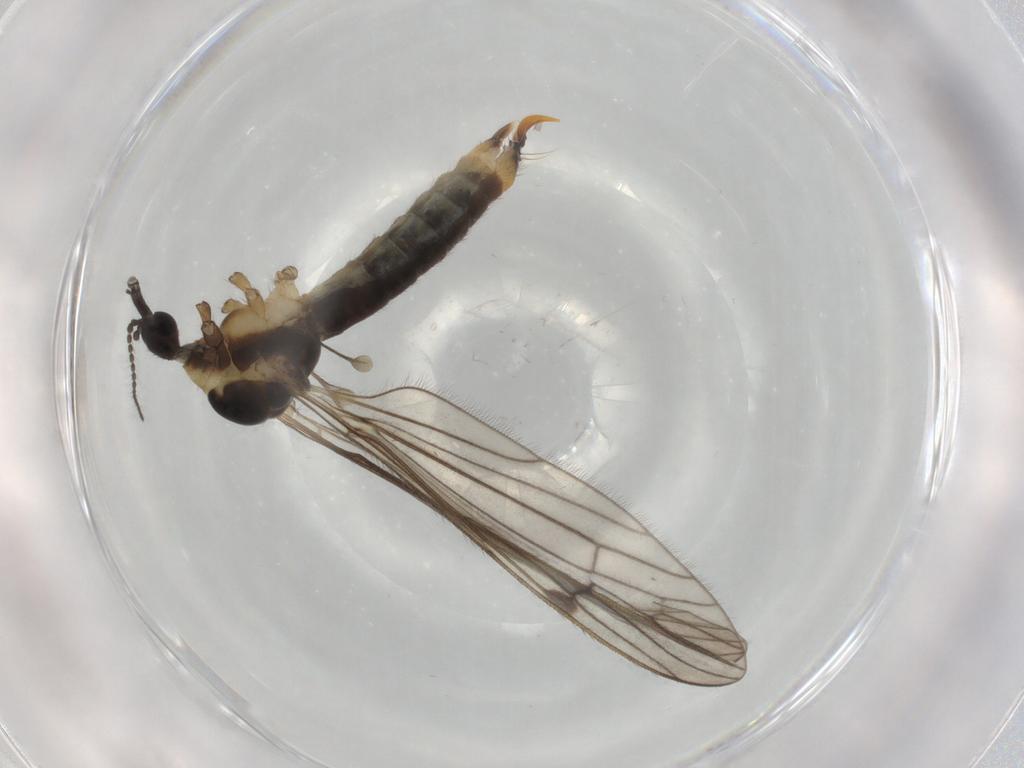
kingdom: Animalia
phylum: Arthropoda
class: Insecta
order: Diptera
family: Limoniidae
